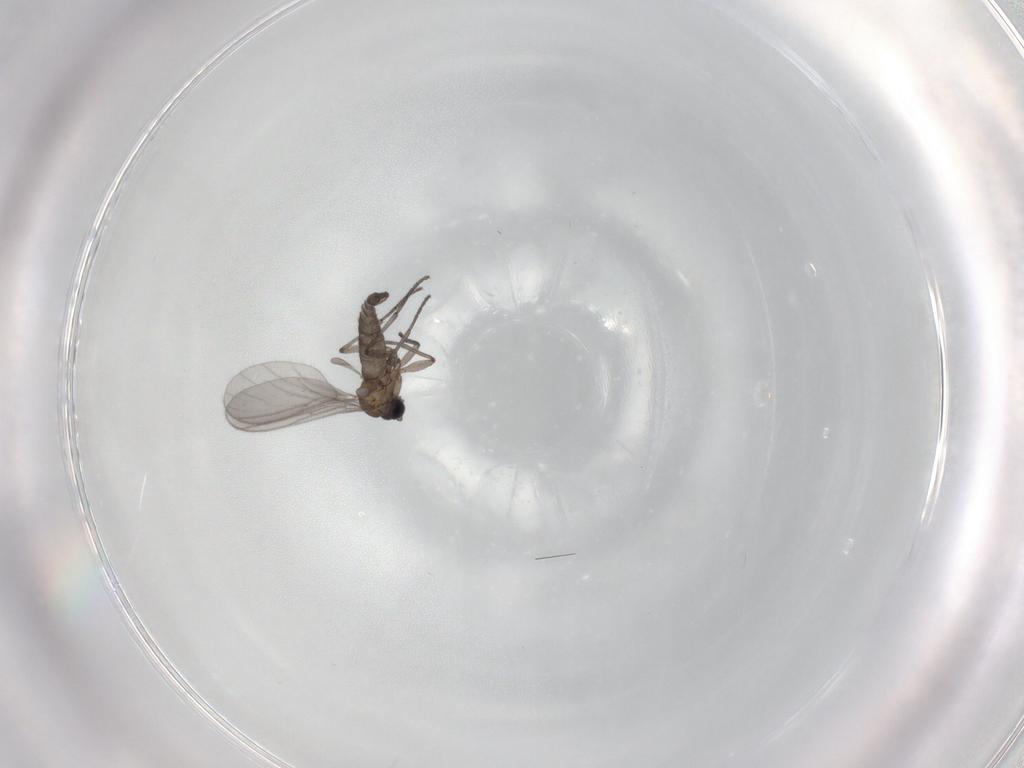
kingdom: Animalia
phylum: Arthropoda
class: Insecta
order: Diptera
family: Sciaridae
